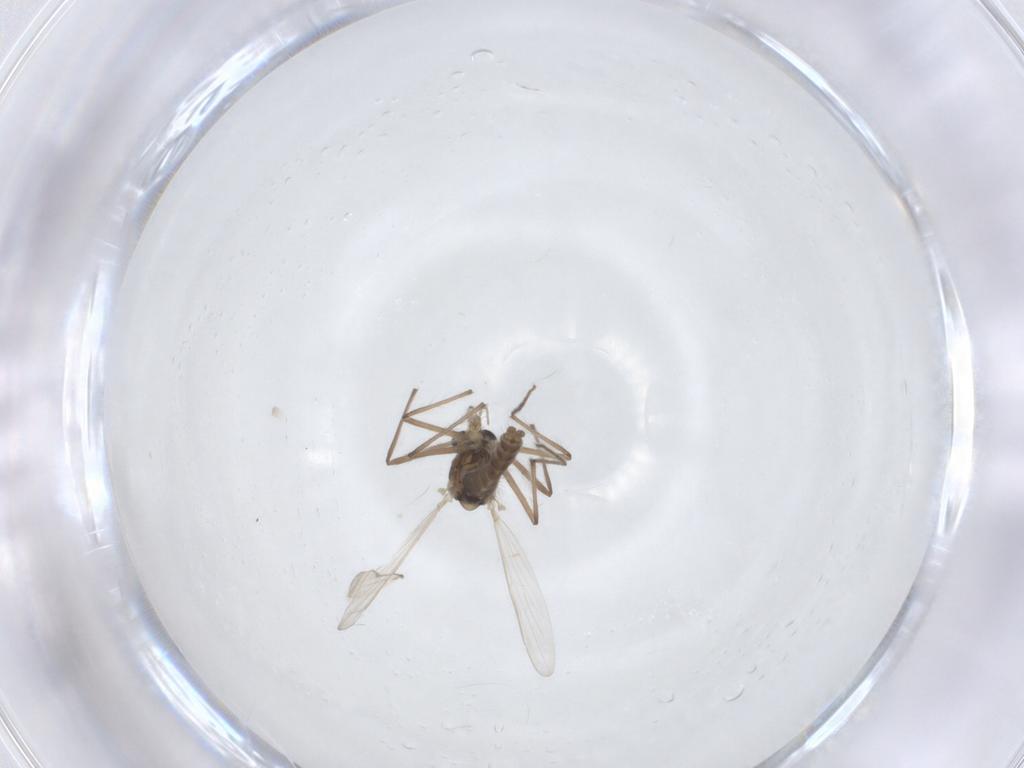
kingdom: Animalia
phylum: Arthropoda
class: Insecta
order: Diptera
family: Chironomidae
